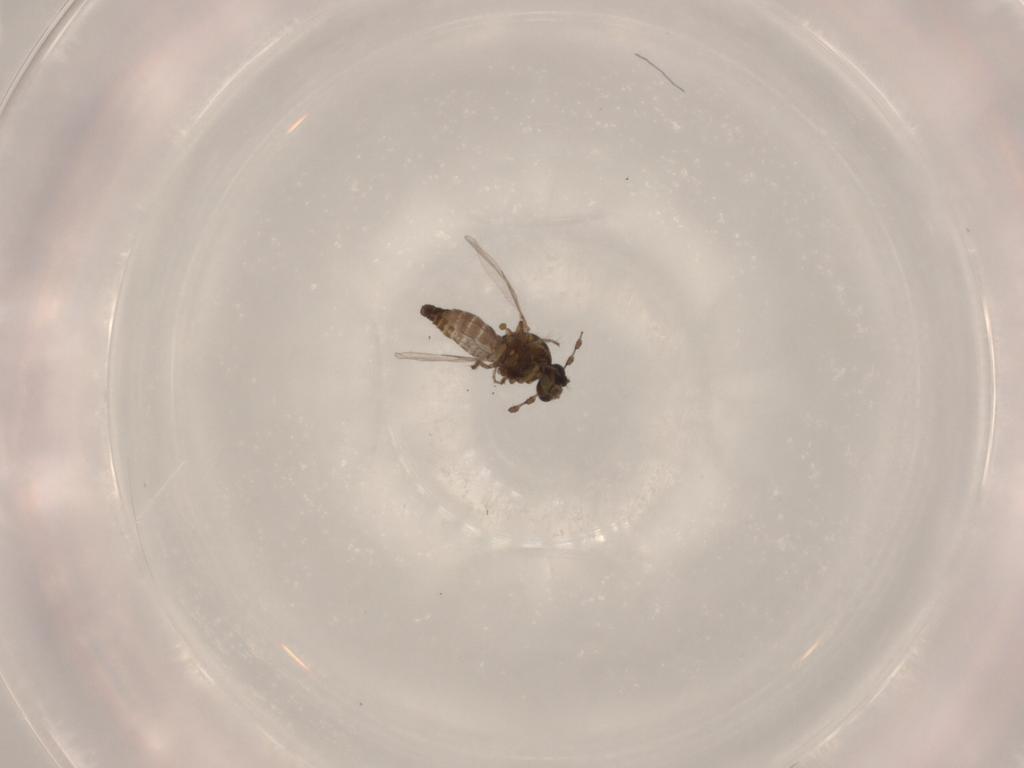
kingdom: Animalia
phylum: Arthropoda
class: Insecta
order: Diptera
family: Ceratopogonidae
